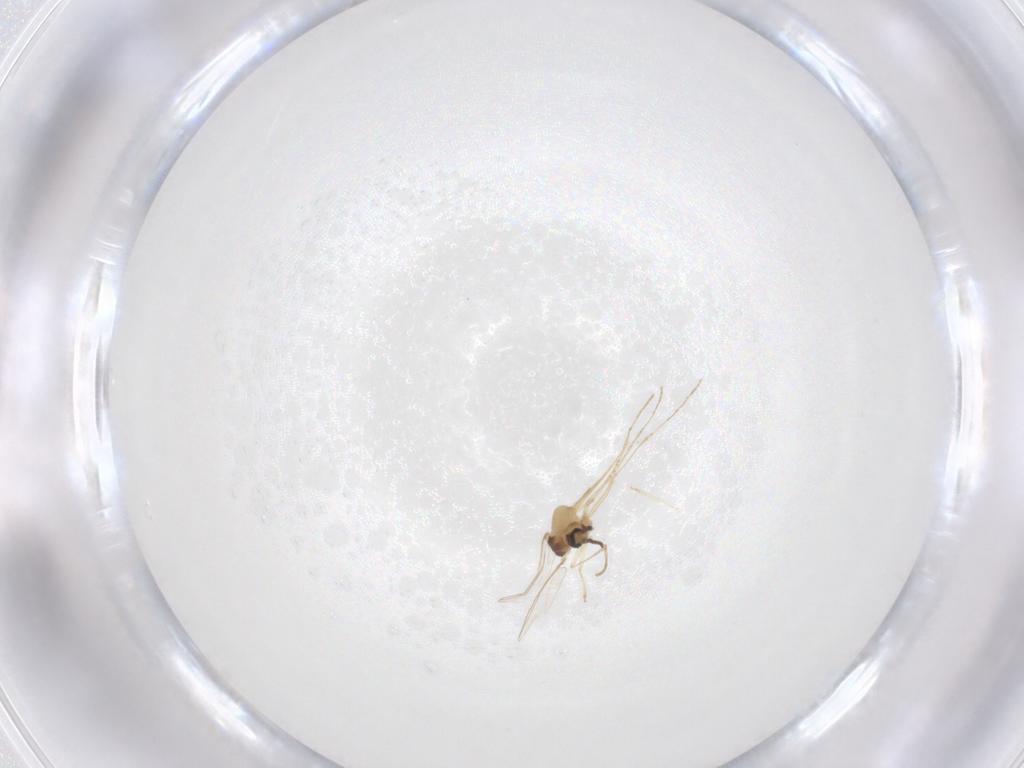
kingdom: Animalia
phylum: Arthropoda
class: Insecta
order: Diptera
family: Cecidomyiidae
